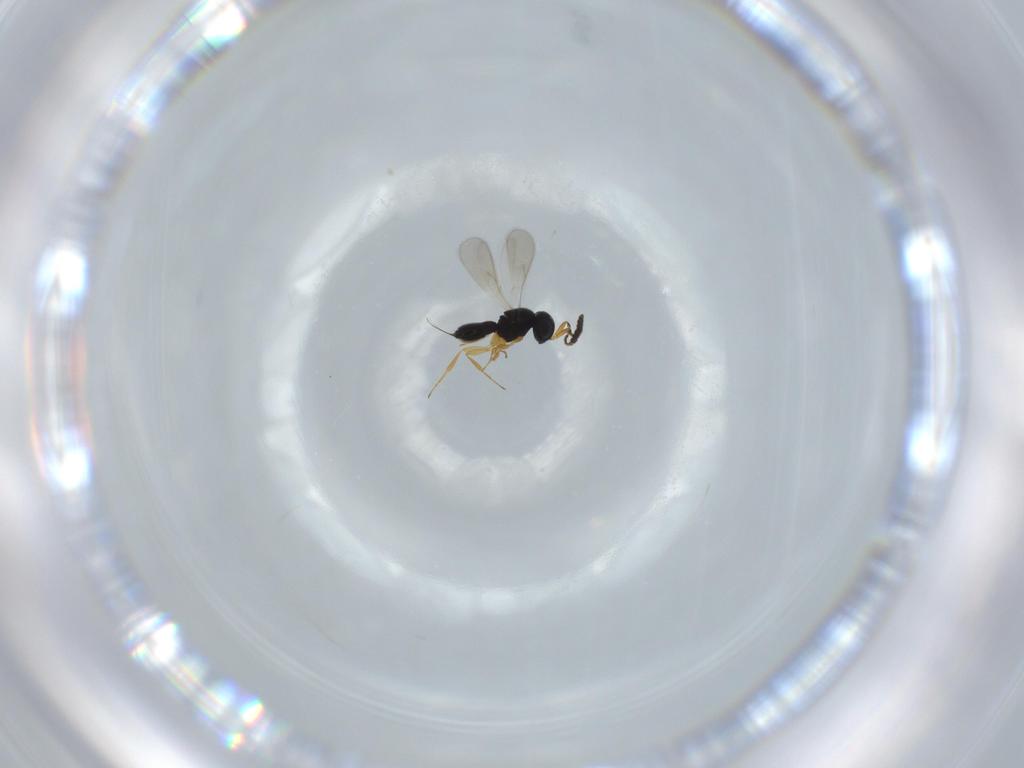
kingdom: Animalia
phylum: Arthropoda
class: Insecta
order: Hymenoptera
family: Scelionidae
